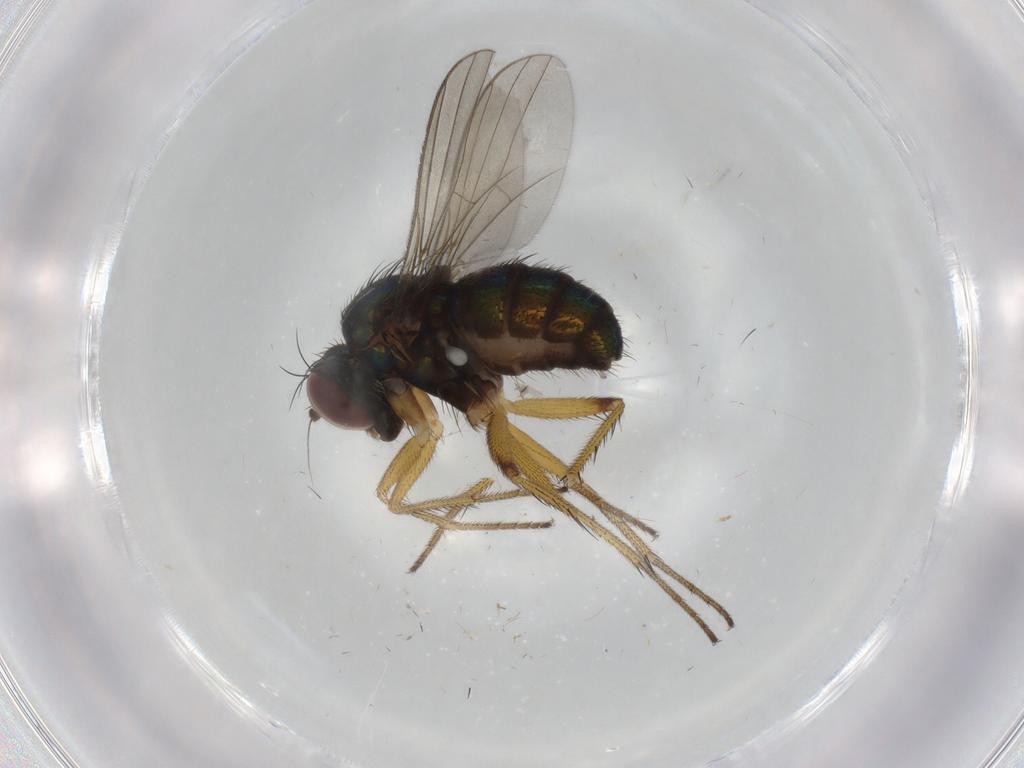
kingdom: Animalia
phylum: Arthropoda
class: Insecta
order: Diptera
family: Dolichopodidae
